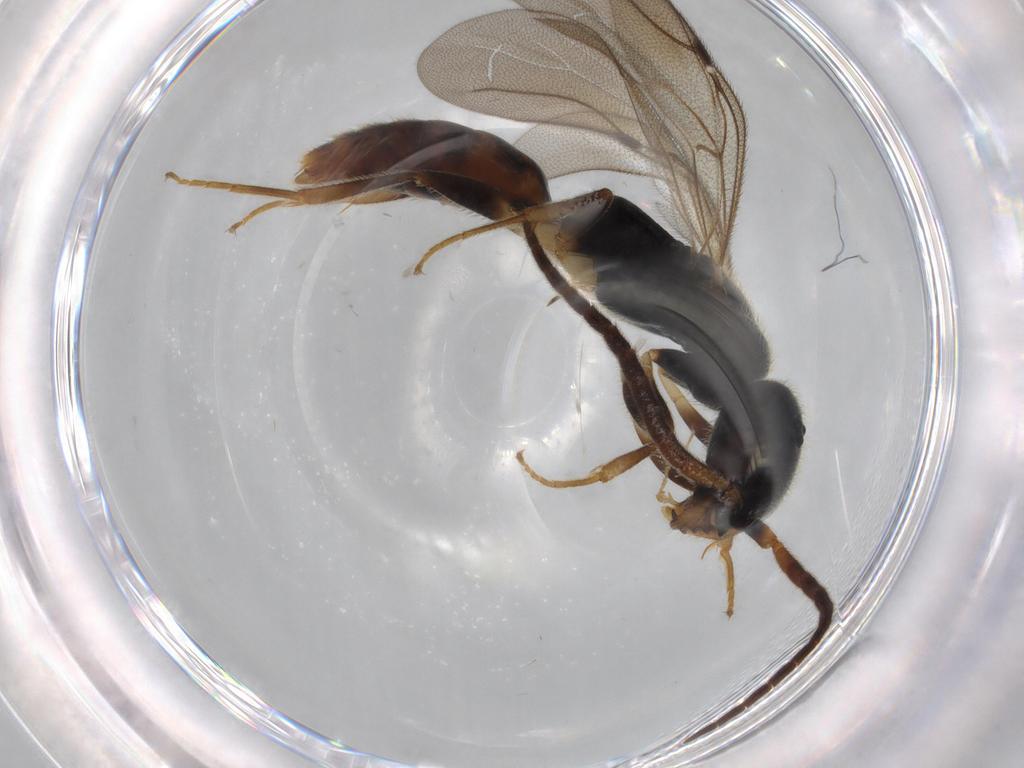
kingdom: Animalia
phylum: Arthropoda
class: Insecta
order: Hymenoptera
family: Bethylidae
